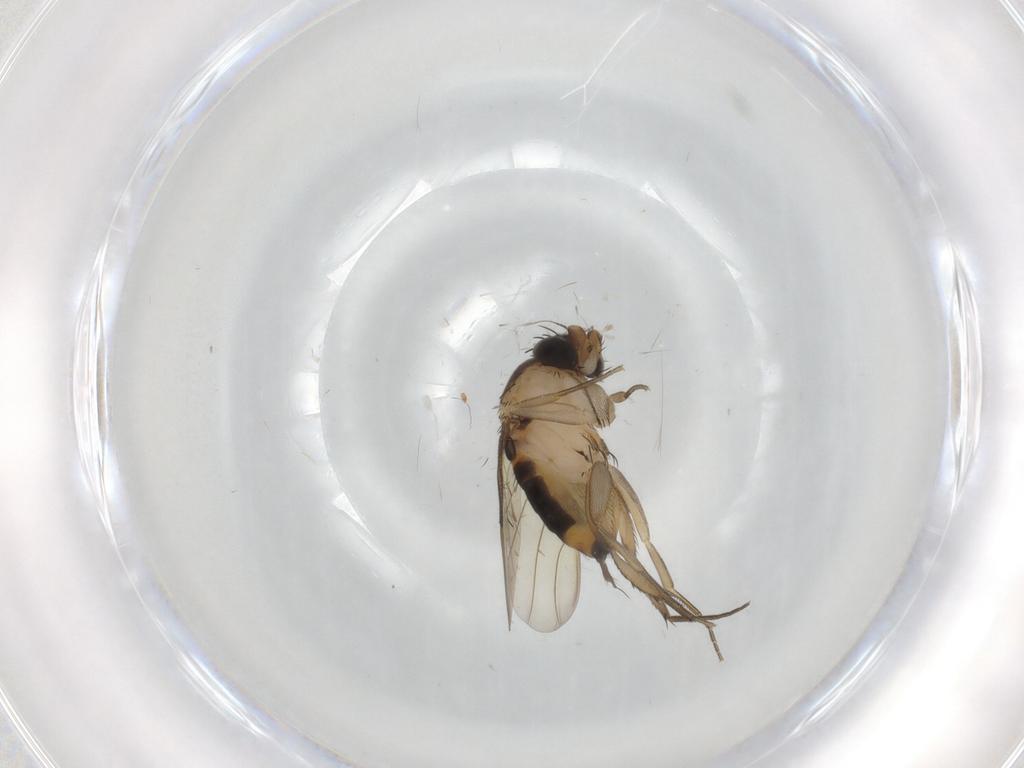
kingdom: Animalia
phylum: Arthropoda
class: Insecta
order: Diptera
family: Phoridae
